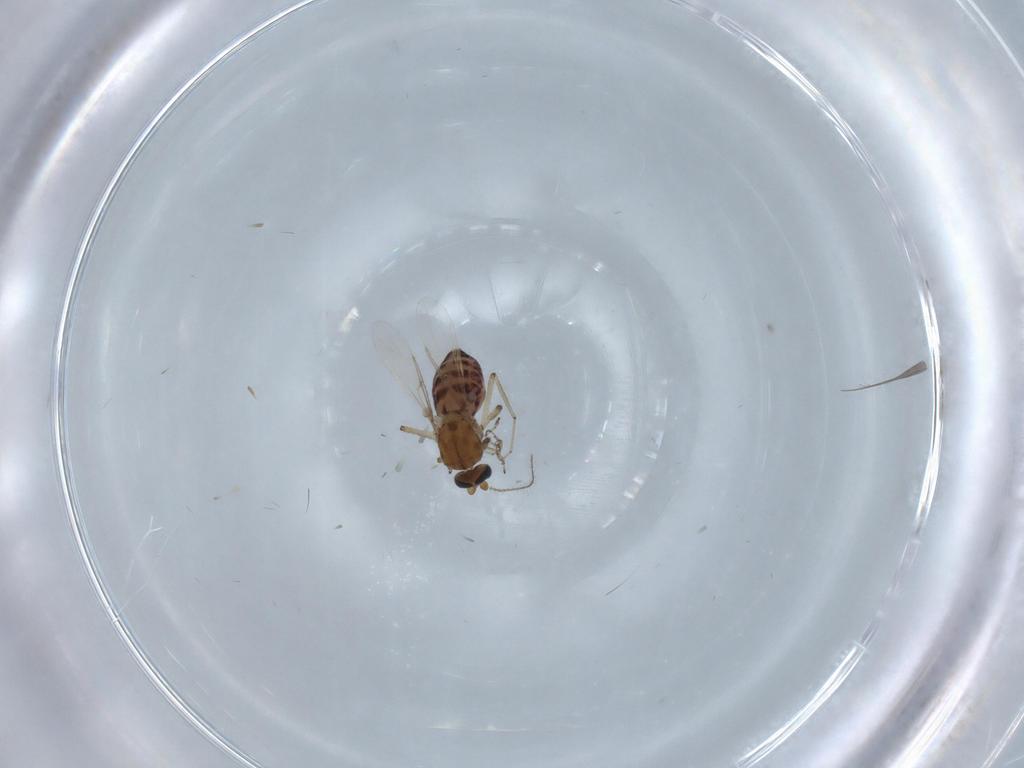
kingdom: Animalia
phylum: Arthropoda
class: Insecta
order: Diptera
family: Ceratopogonidae
